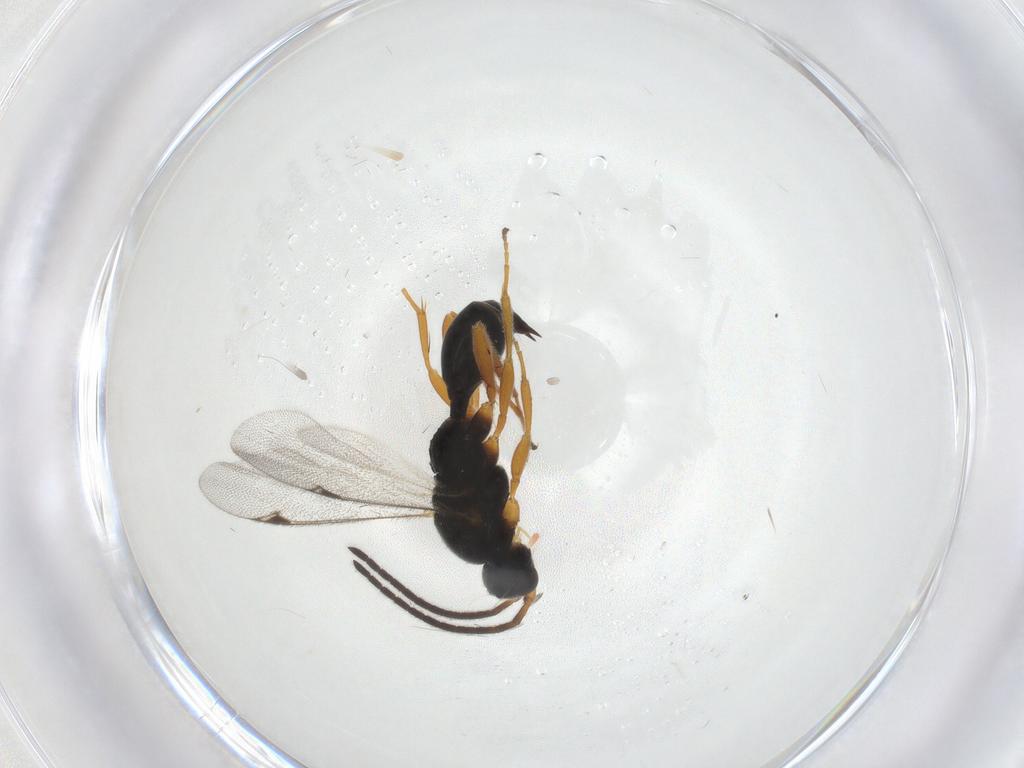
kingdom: Animalia
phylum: Arthropoda
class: Insecta
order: Hymenoptera
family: Proctotrupidae
